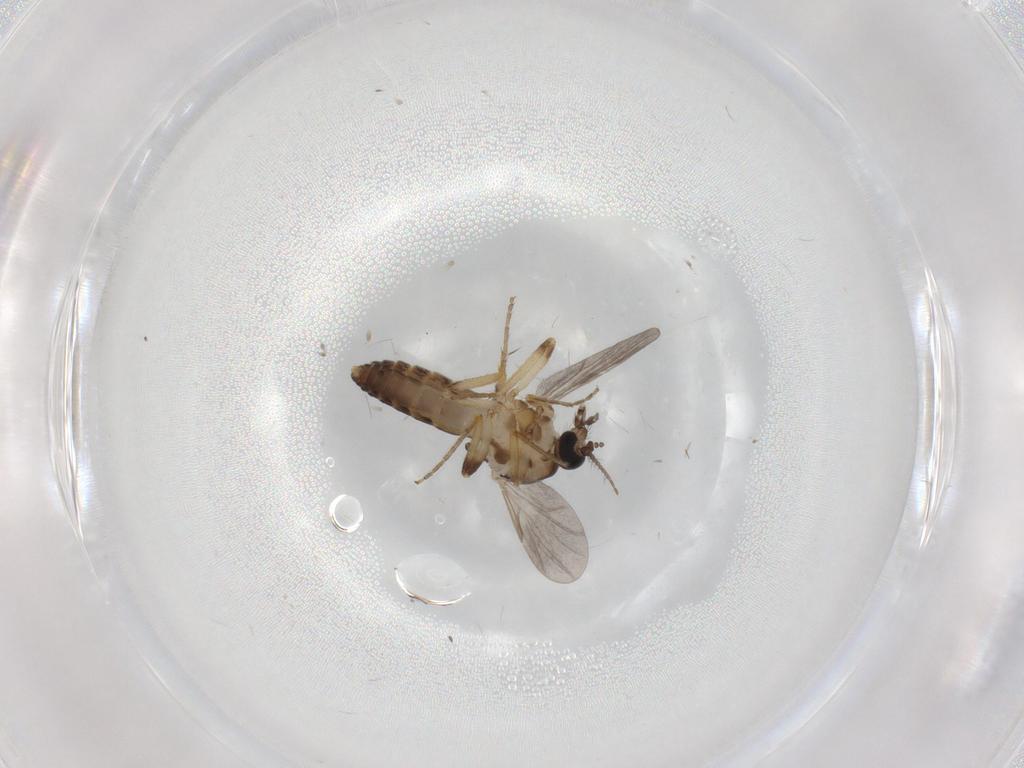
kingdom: Animalia
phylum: Arthropoda
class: Insecta
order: Diptera
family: Ceratopogonidae
